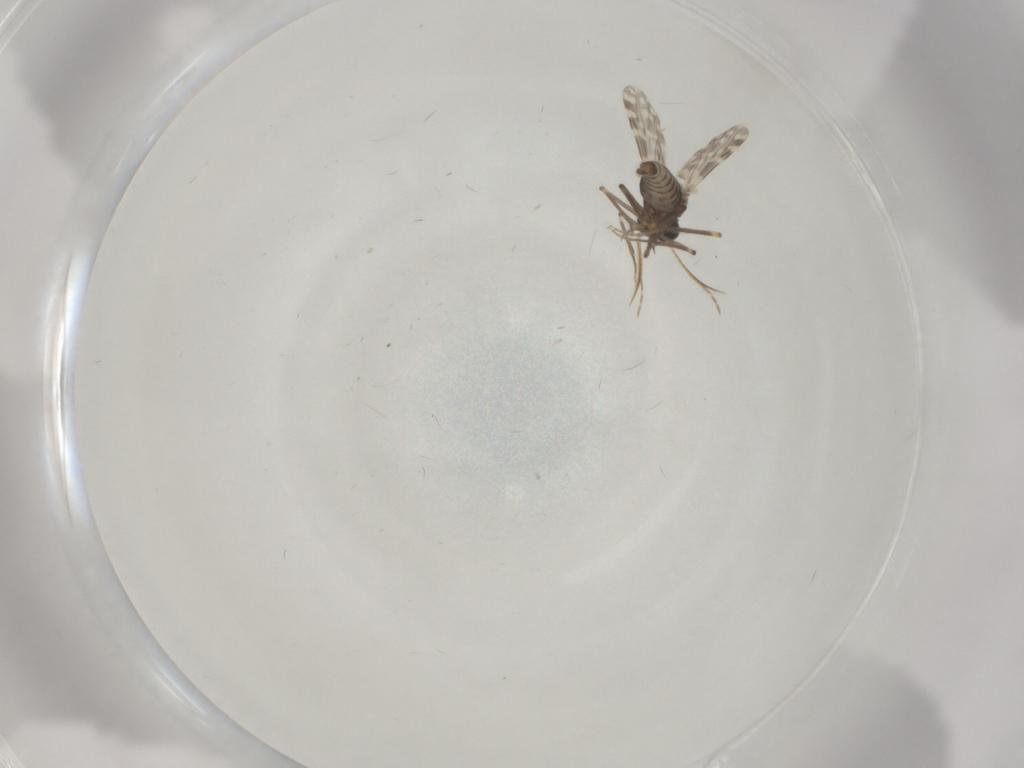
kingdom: Animalia
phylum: Arthropoda
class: Insecta
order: Diptera
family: Ceratopogonidae
